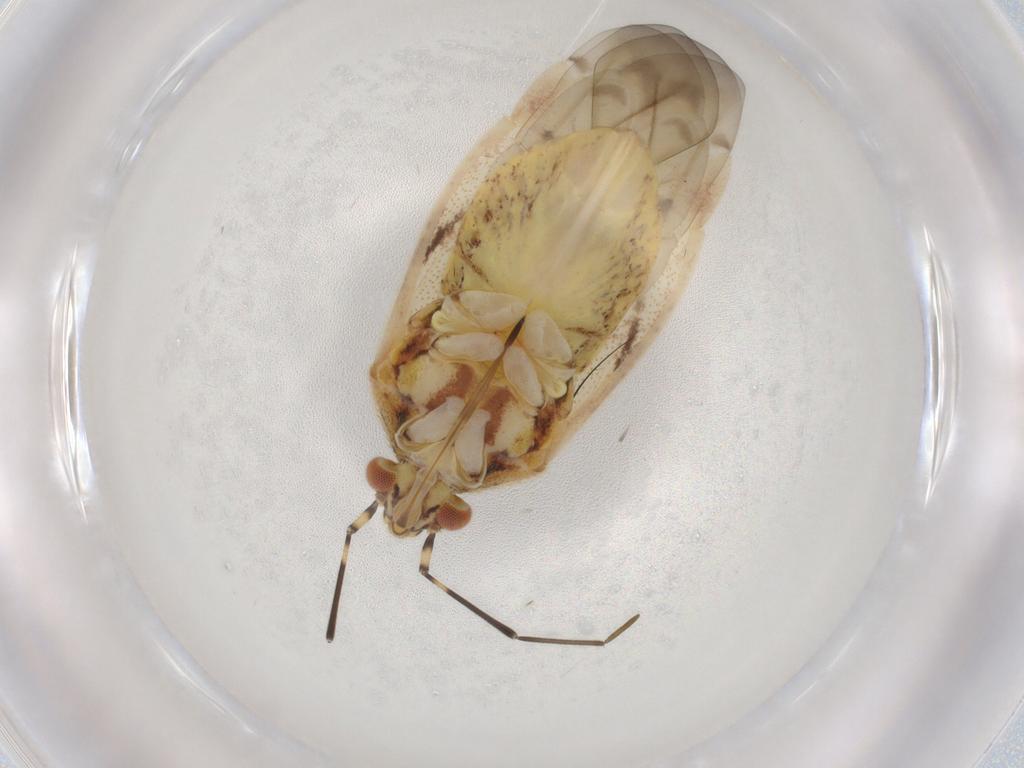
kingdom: Animalia
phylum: Arthropoda
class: Insecta
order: Hemiptera
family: Miridae
